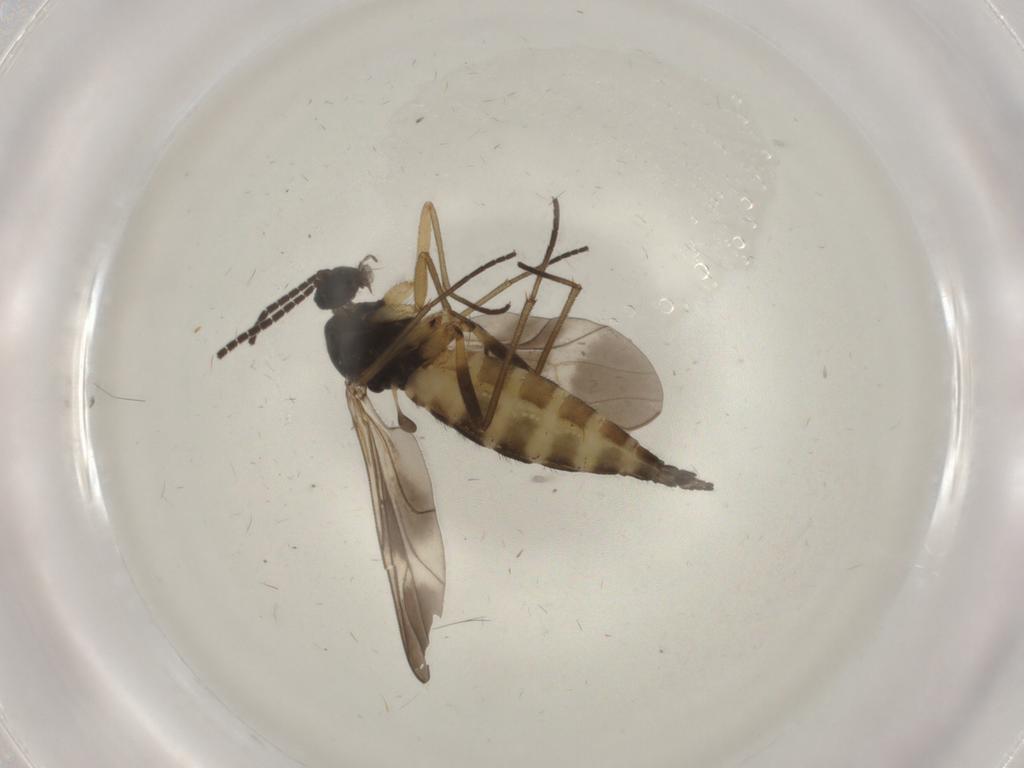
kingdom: Animalia
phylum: Arthropoda
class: Insecta
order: Diptera
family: Sciaridae
